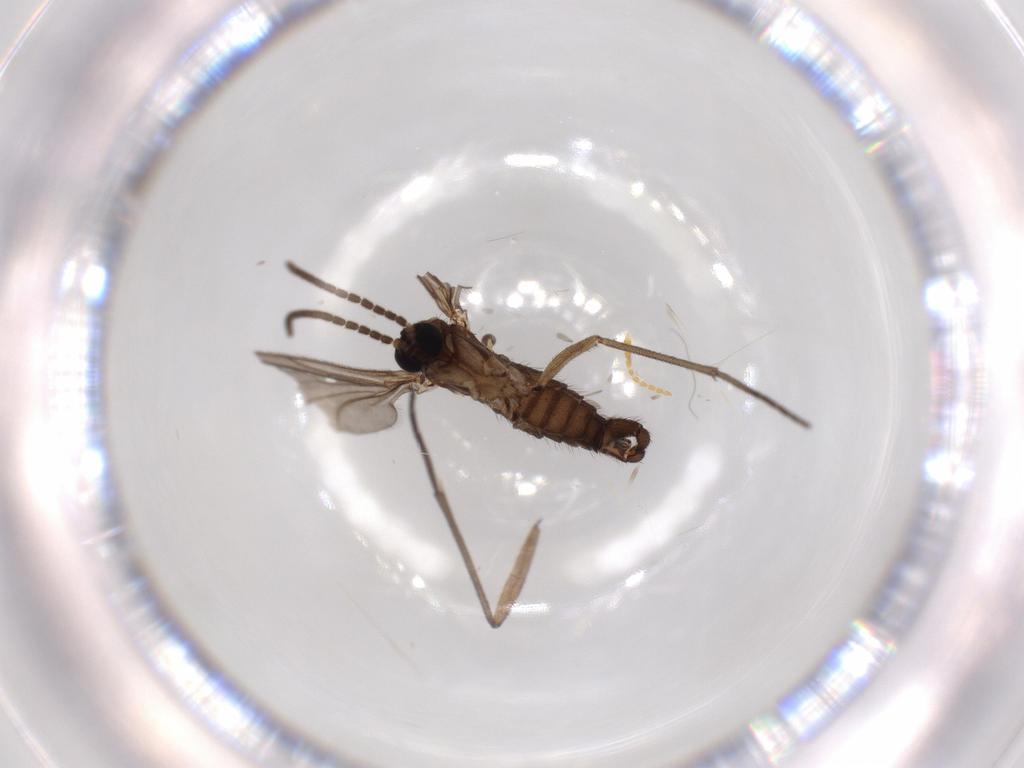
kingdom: Animalia
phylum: Arthropoda
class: Insecta
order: Diptera
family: Sciaridae
